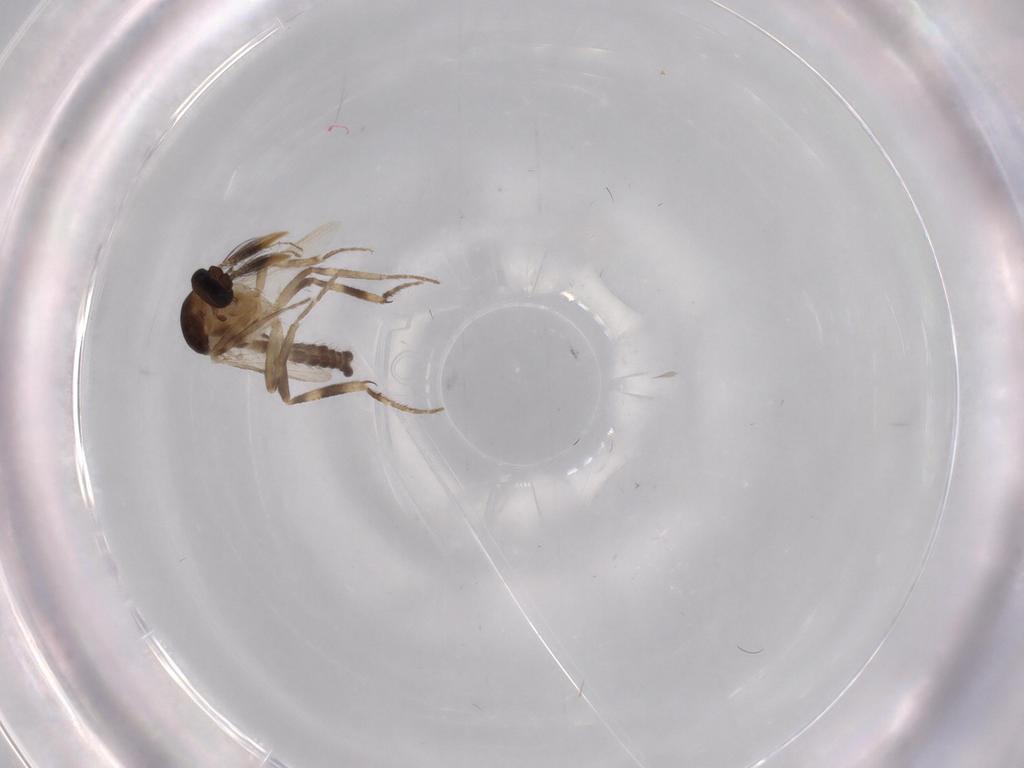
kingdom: Animalia
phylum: Arthropoda
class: Insecta
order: Diptera
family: Ceratopogonidae
